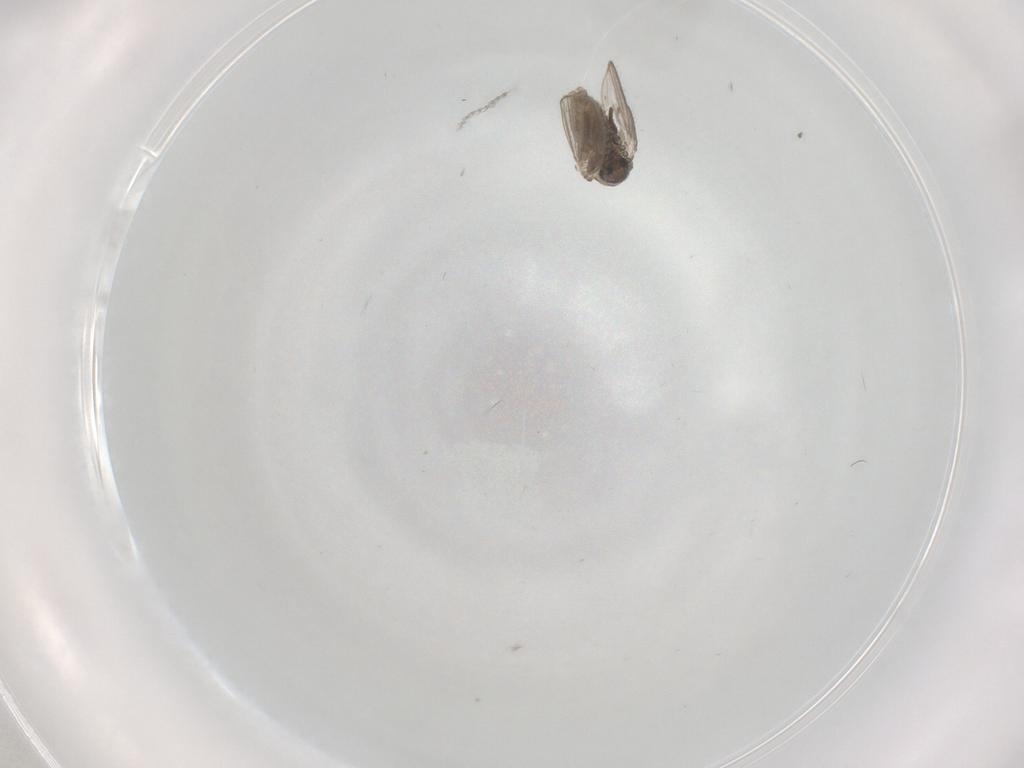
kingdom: Animalia
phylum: Arthropoda
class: Insecta
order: Diptera
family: Psychodidae
